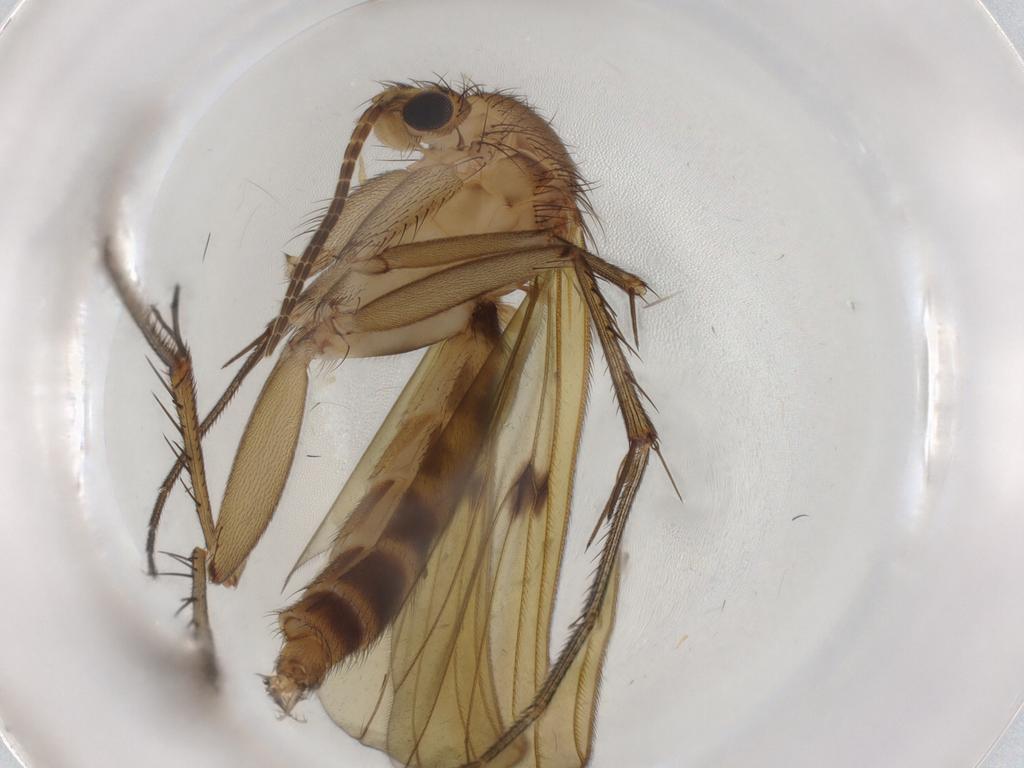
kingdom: Animalia
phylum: Arthropoda
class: Insecta
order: Diptera
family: Mycetophilidae
